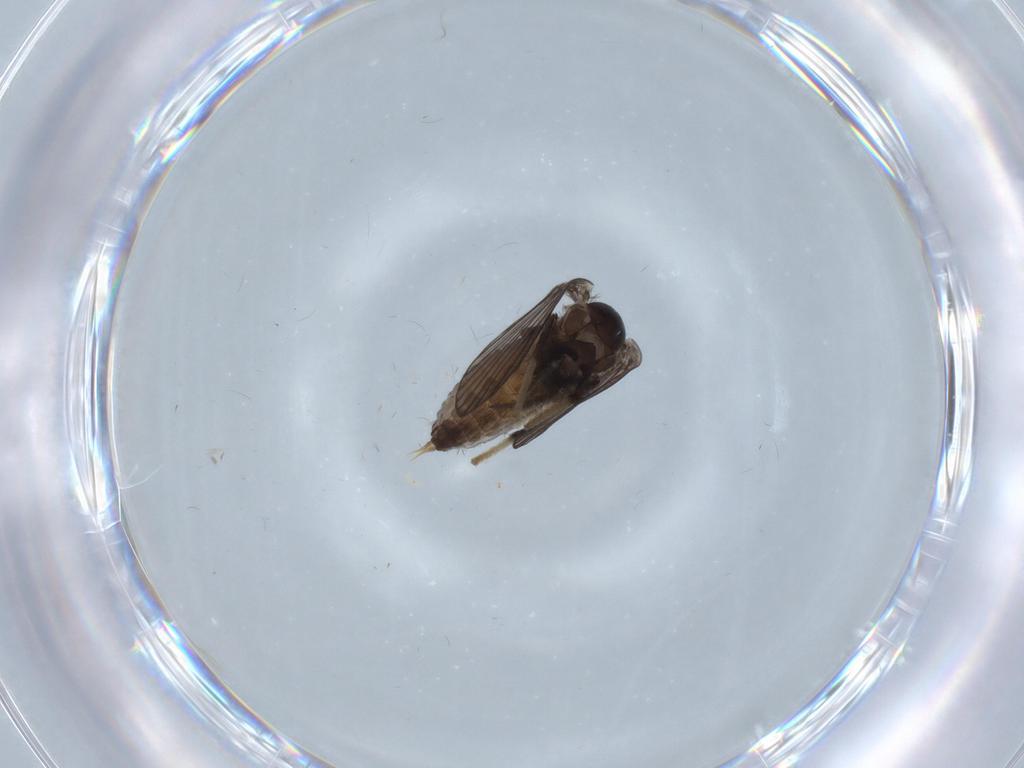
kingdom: Animalia
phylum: Arthropoda
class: Insecta
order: Diptera
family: Psychodidae
